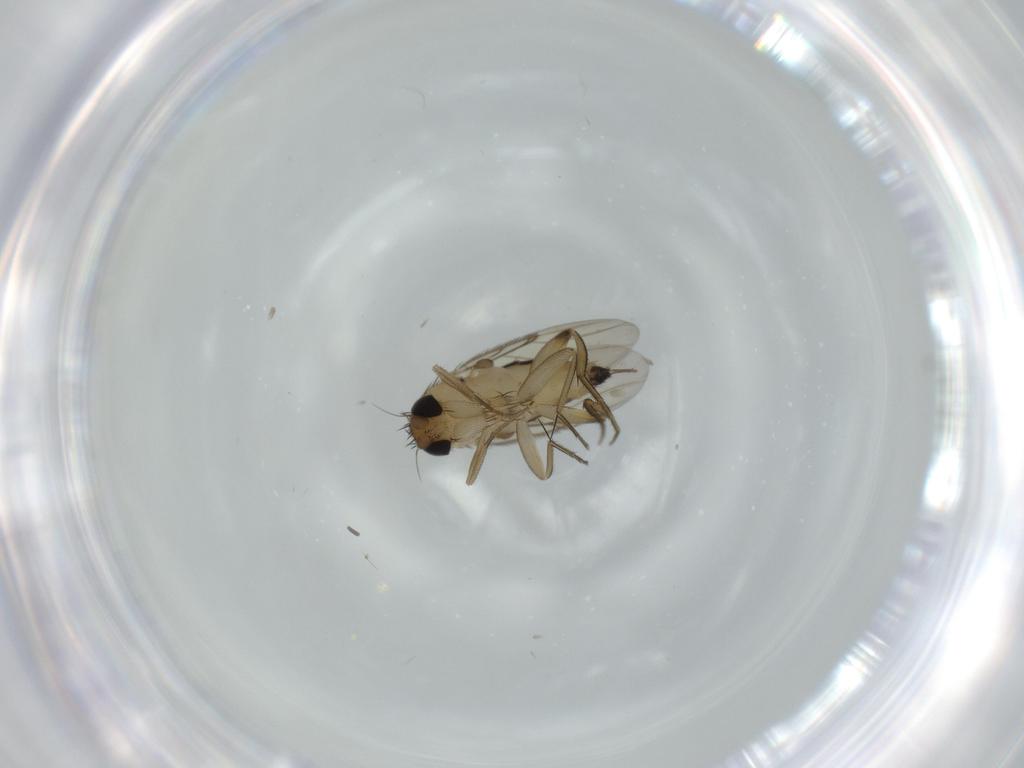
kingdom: Animalia
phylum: Arthropoda
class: Insecta
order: Diptera
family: Phoridae
